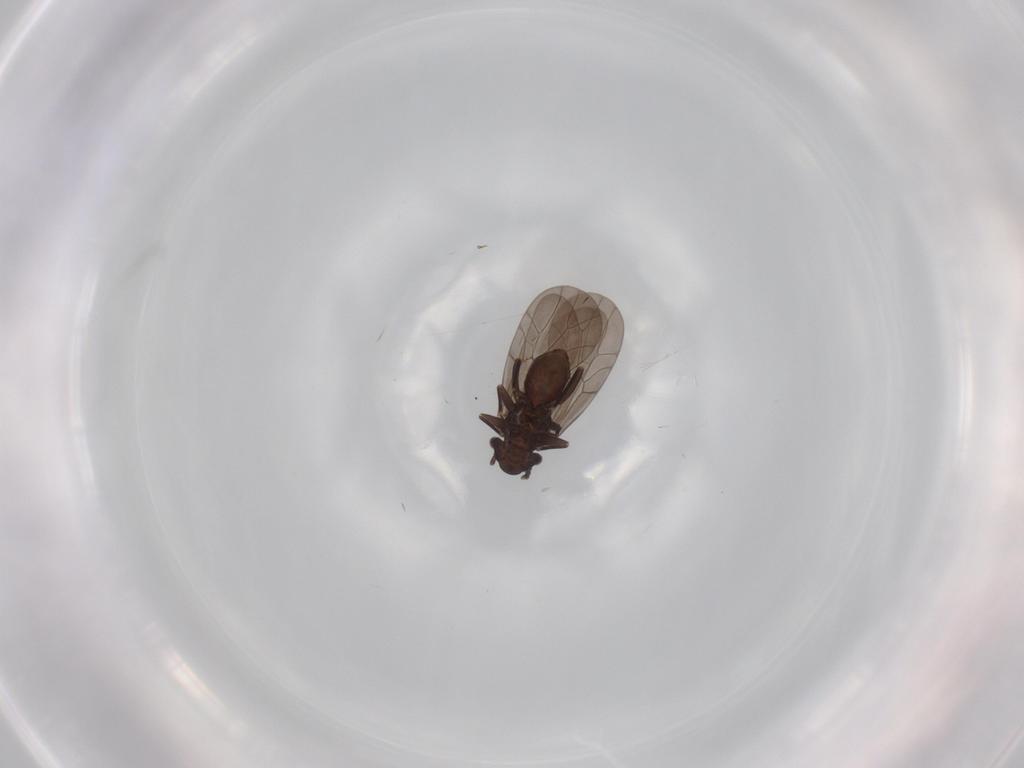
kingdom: Animalia
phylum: Arthropoda
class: Insecta
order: Psocodea
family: Lepidopsocidae
